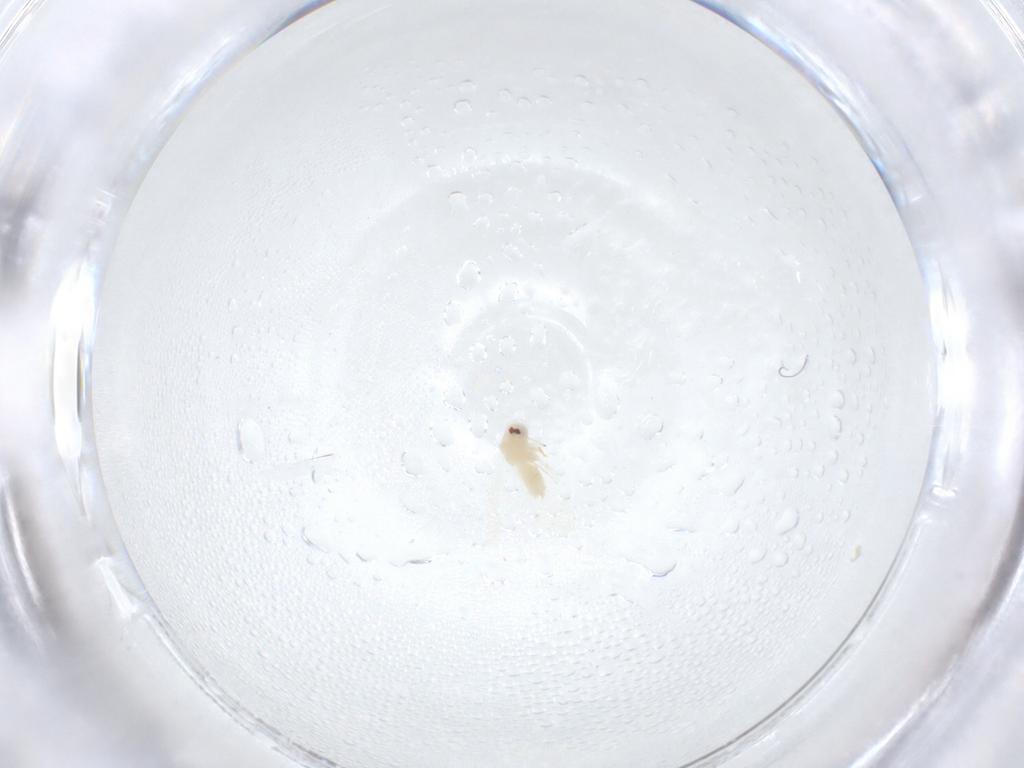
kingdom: Animalia
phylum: Arthropoda
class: Insecta
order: Hemiptera
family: Aleyrodidae
